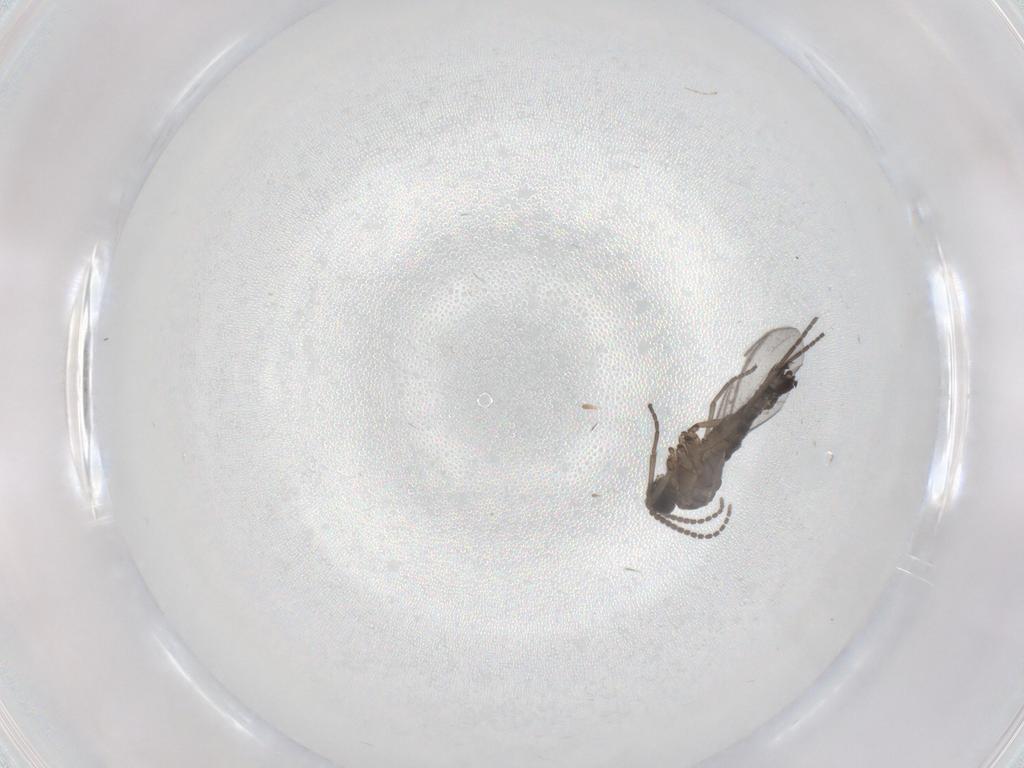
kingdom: Animalia
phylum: Arthropoda
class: Insecta
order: Diptera
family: Sciaridae
